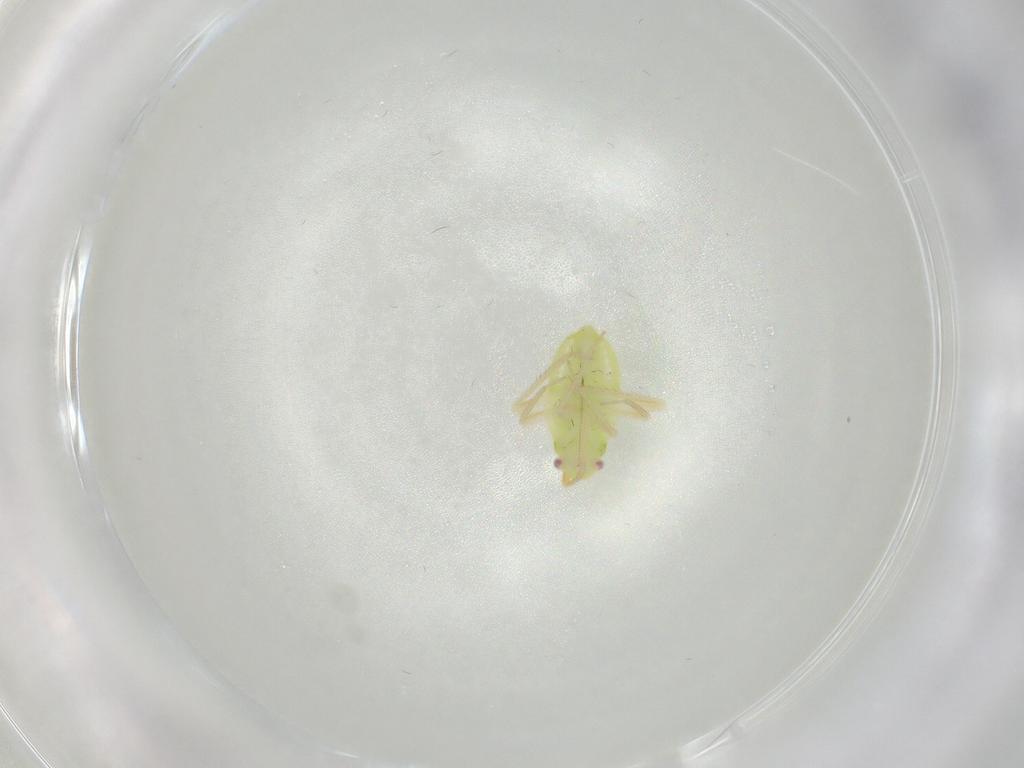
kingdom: Animalia
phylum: Arthropoda
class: Insecta
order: Hemiptera
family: Miridae
